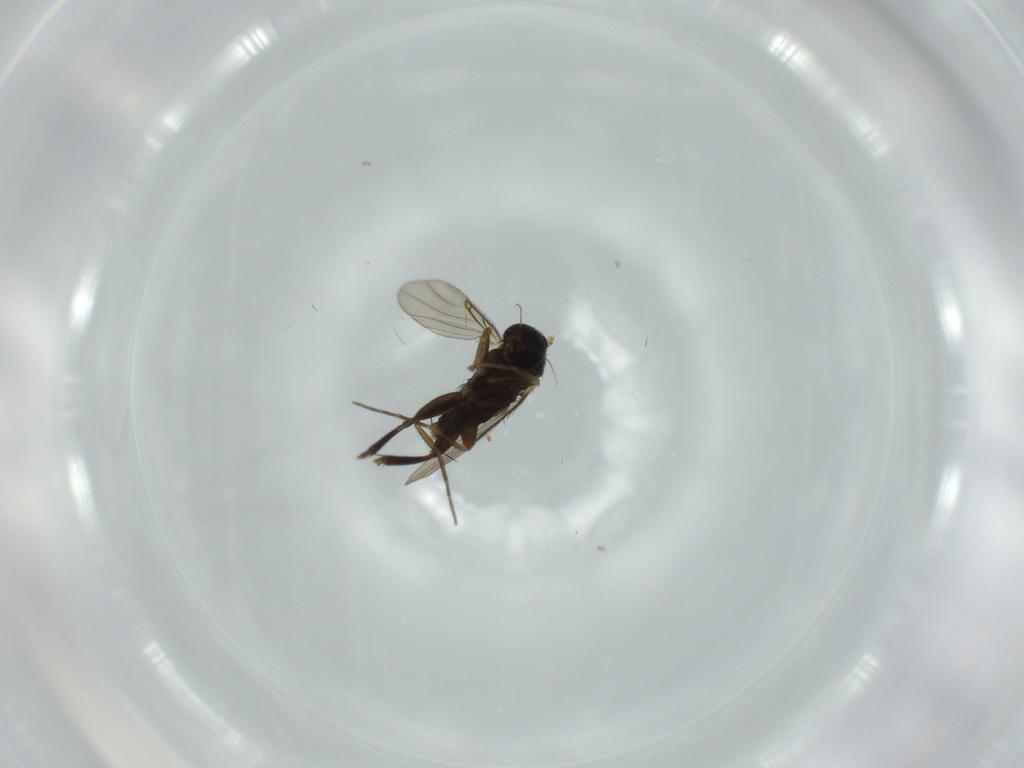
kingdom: Animalia
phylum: Arthropoda
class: Insecta
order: Diptera
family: Phoridae
